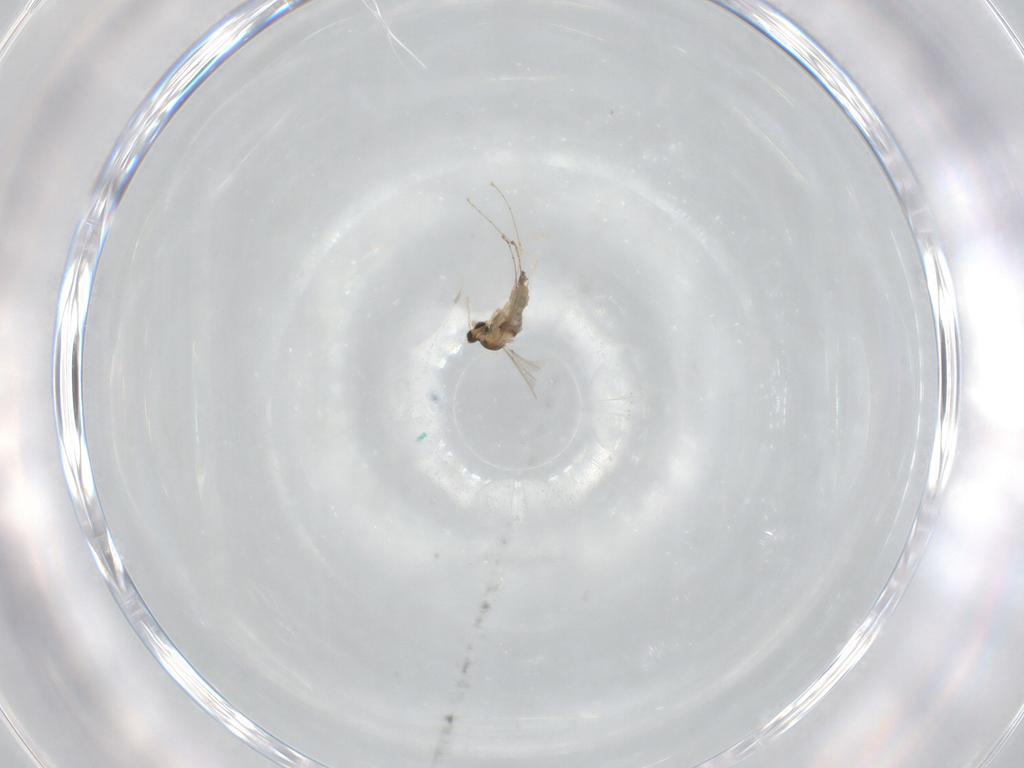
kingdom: Animalia
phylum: Arthropoda
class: Insecta
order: Diptera
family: Cecidomyiidae
